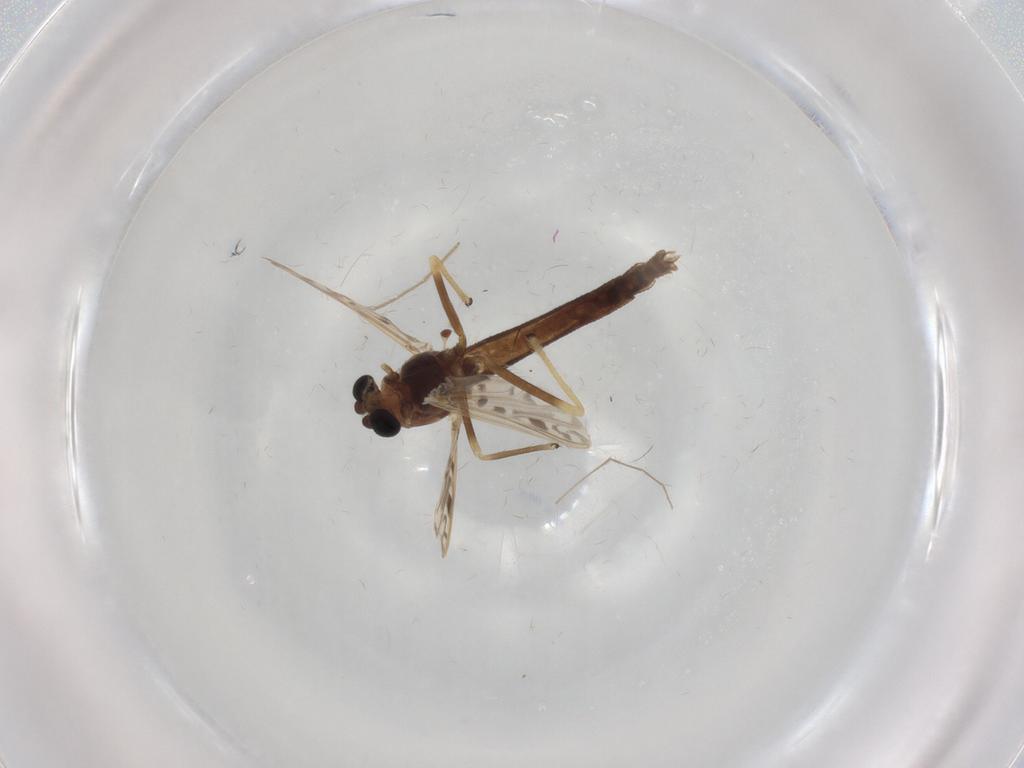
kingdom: Animalia
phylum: Arthropoda
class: Insecta
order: Diptera
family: Chironomidae
